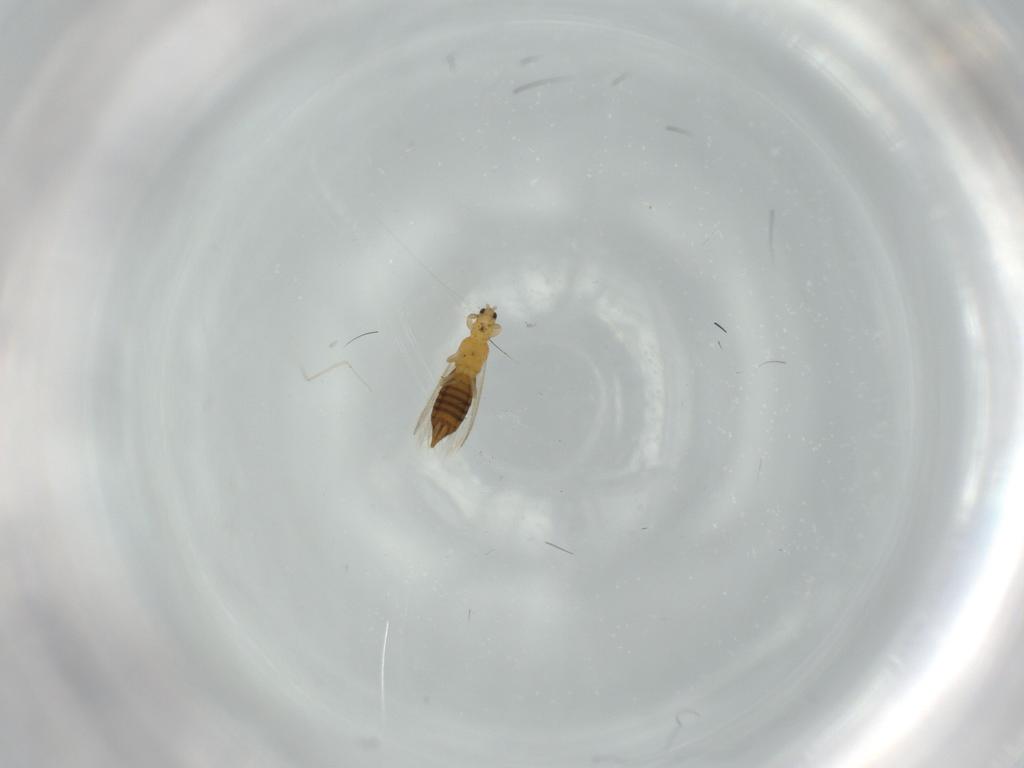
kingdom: Animalia
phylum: Arthropoda
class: Insecta
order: Thysanoptera
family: Thripidae
